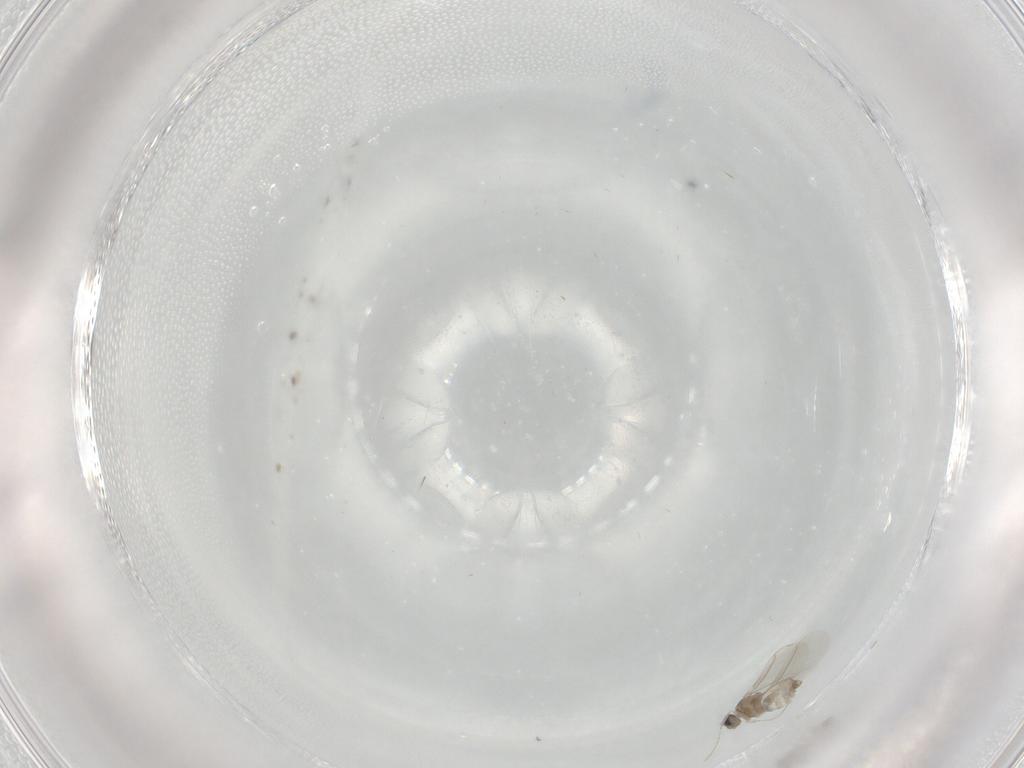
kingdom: Animalia
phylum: Arthropoda
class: Insecta
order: Diptera
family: Cecidomyiidae
